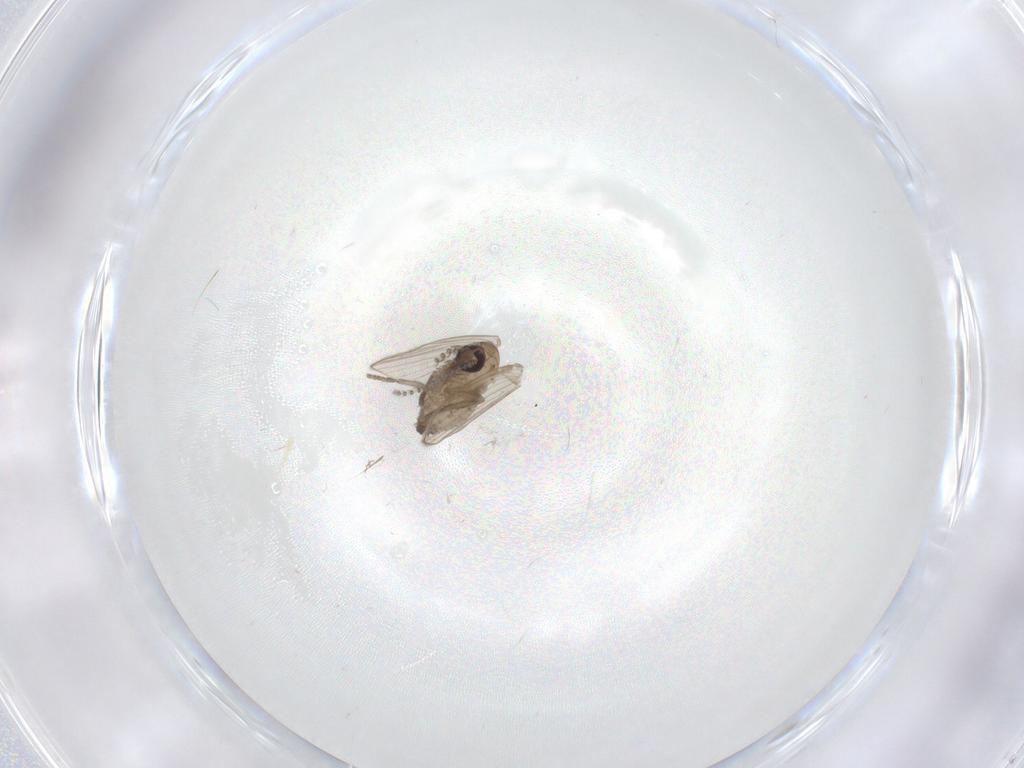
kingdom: Animalia
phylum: Arthropoda
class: Insecta
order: Diptera
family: Psychodidae
